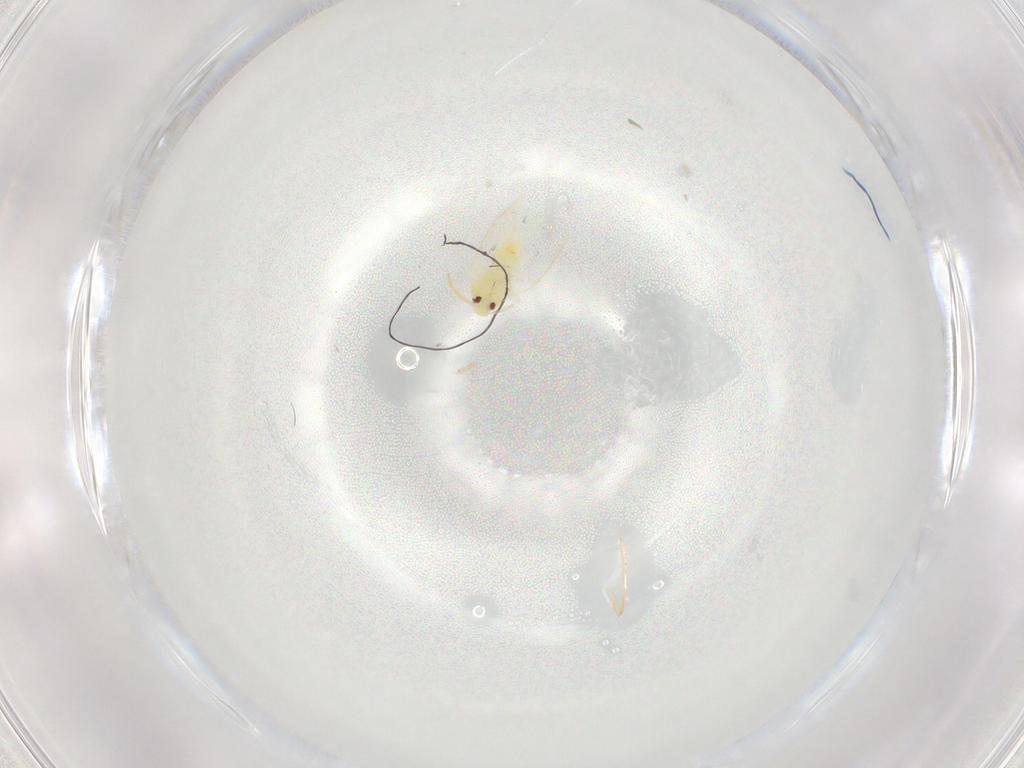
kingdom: Animalia
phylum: Arthropoda
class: Insecta
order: Hemiptera
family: Aleyrodidae
